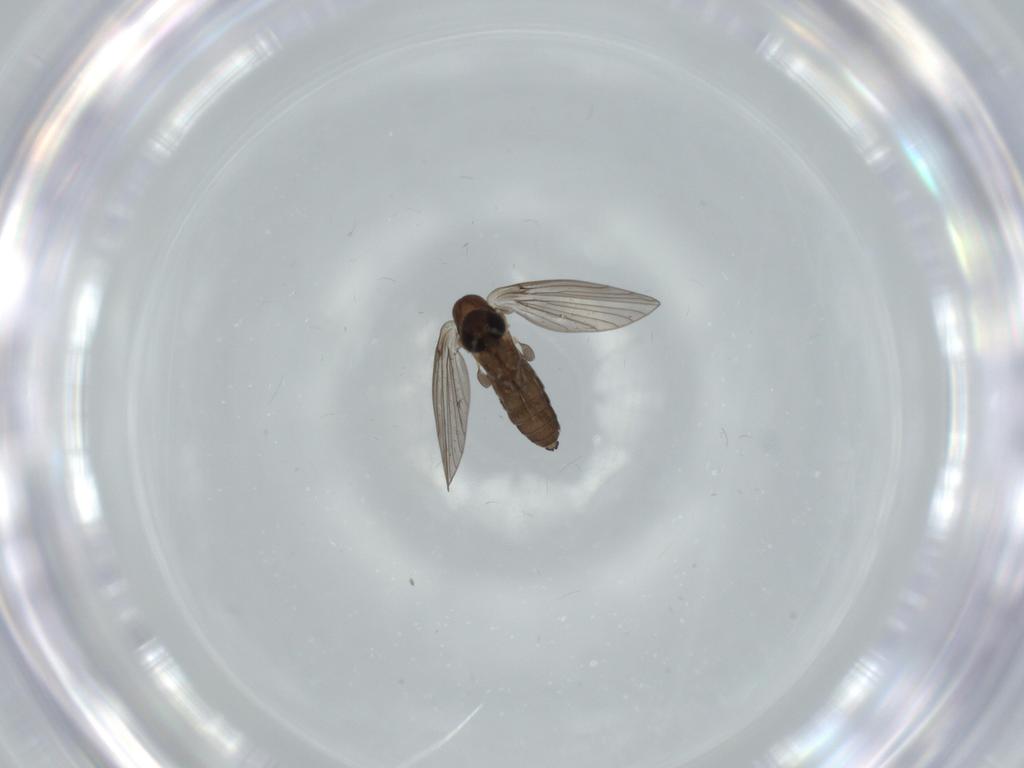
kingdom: Animalia
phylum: Arthropoda
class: Insecta
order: Diptera
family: Psychodidae
